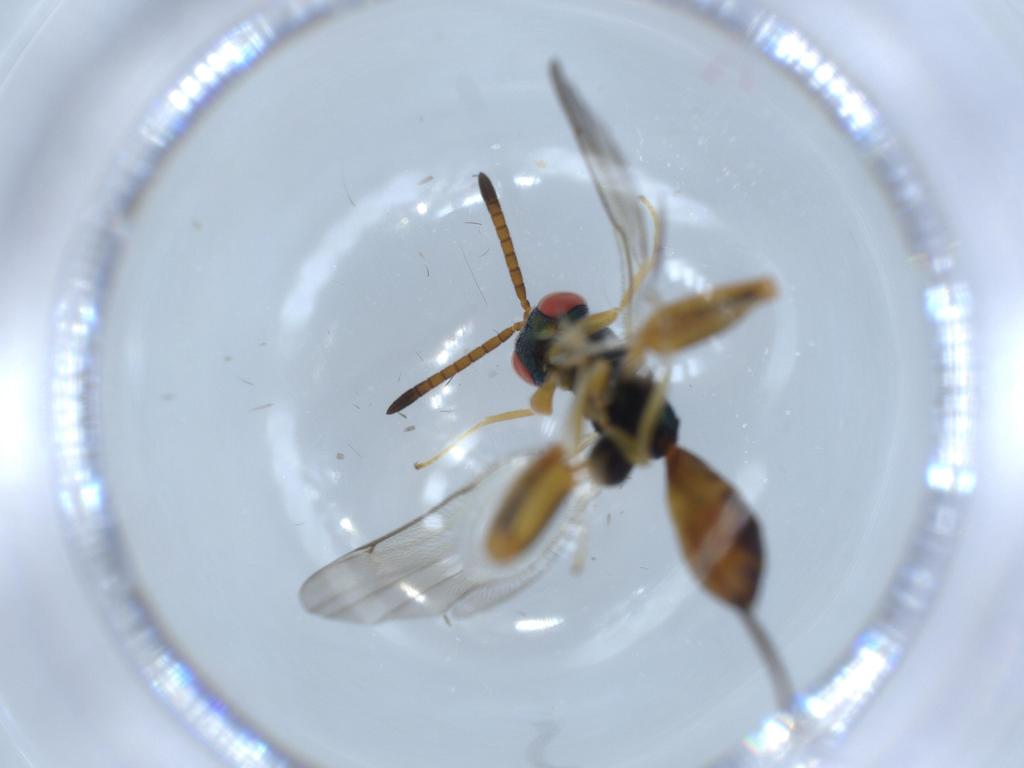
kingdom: Animalia
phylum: Arthropoda
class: Insecta
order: Hymenoptera
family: Torymidae
